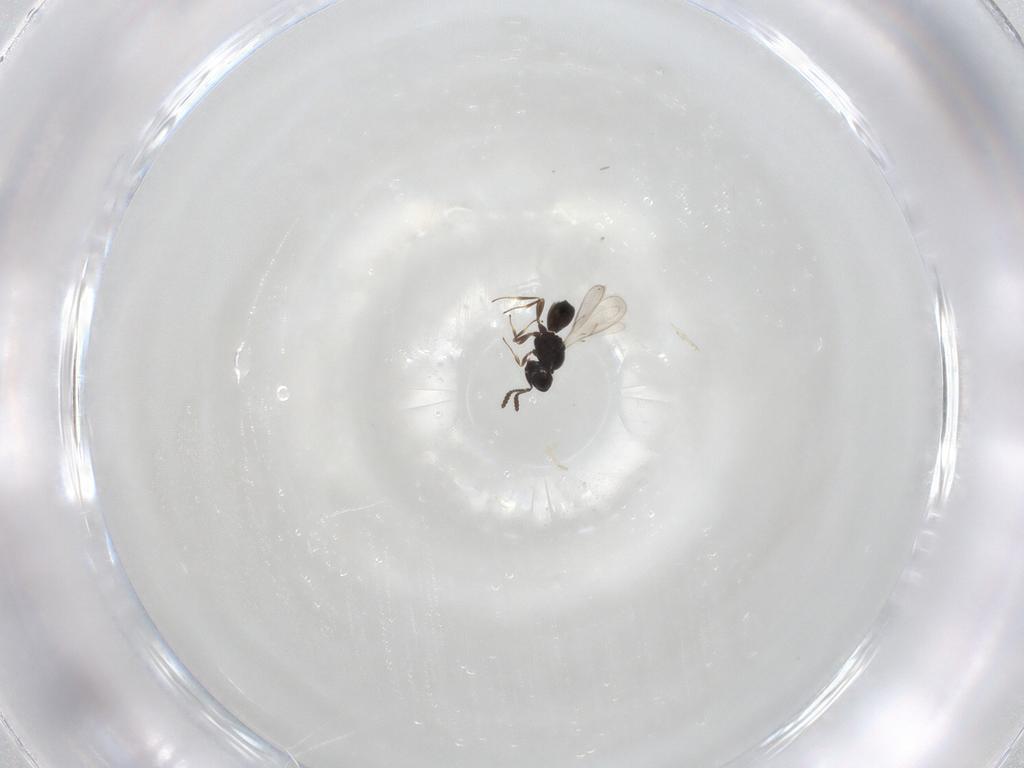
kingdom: Animalia
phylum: Arthropoda
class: Insecta
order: Hymenoptera
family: Scelionidae
